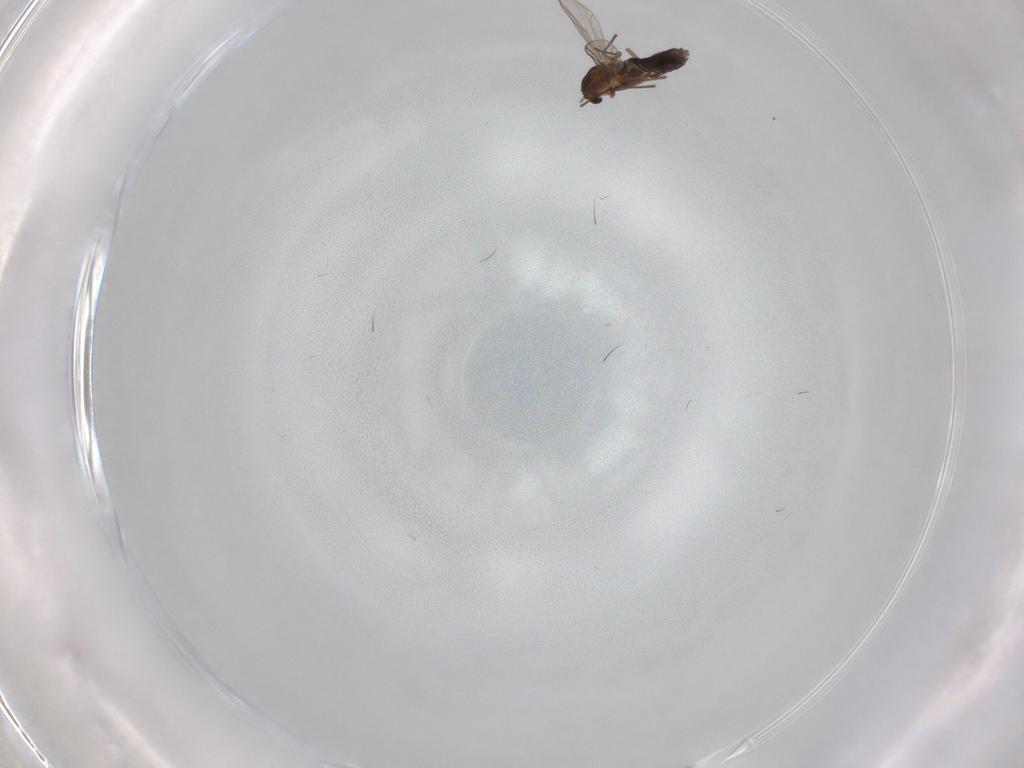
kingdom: Animalia
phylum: Arthropoda
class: Insecta
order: Diptera
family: Chironomidae
